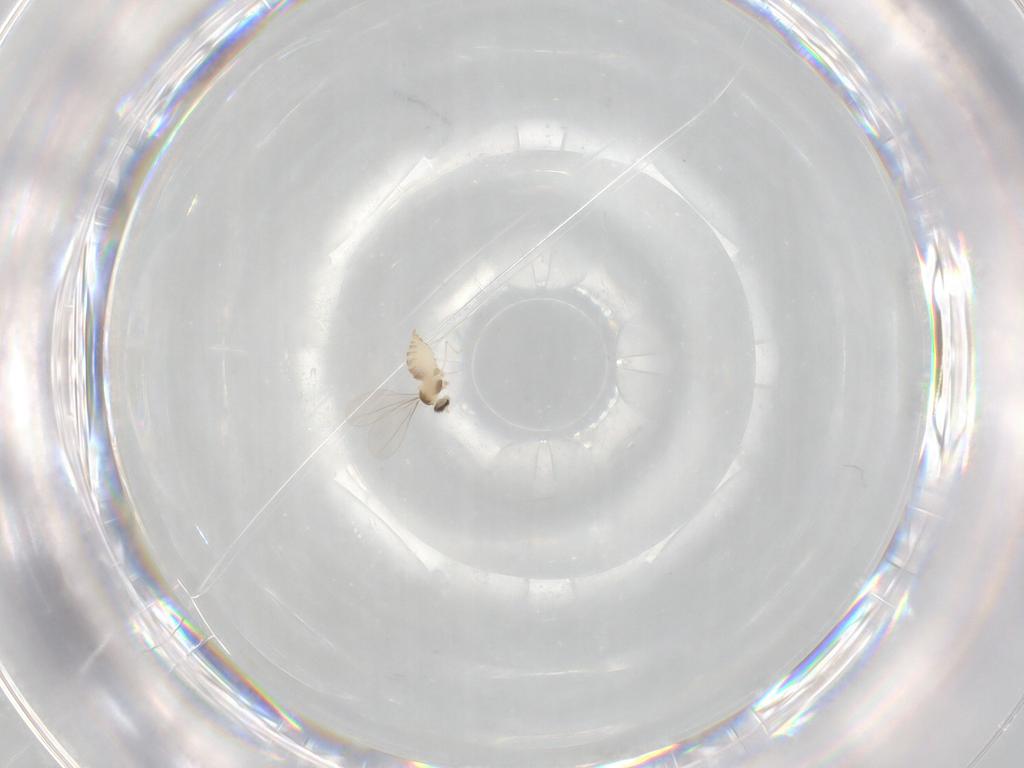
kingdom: Animalia
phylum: Arthropoda
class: Insecta
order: Diptera
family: Cecidomyiidae
